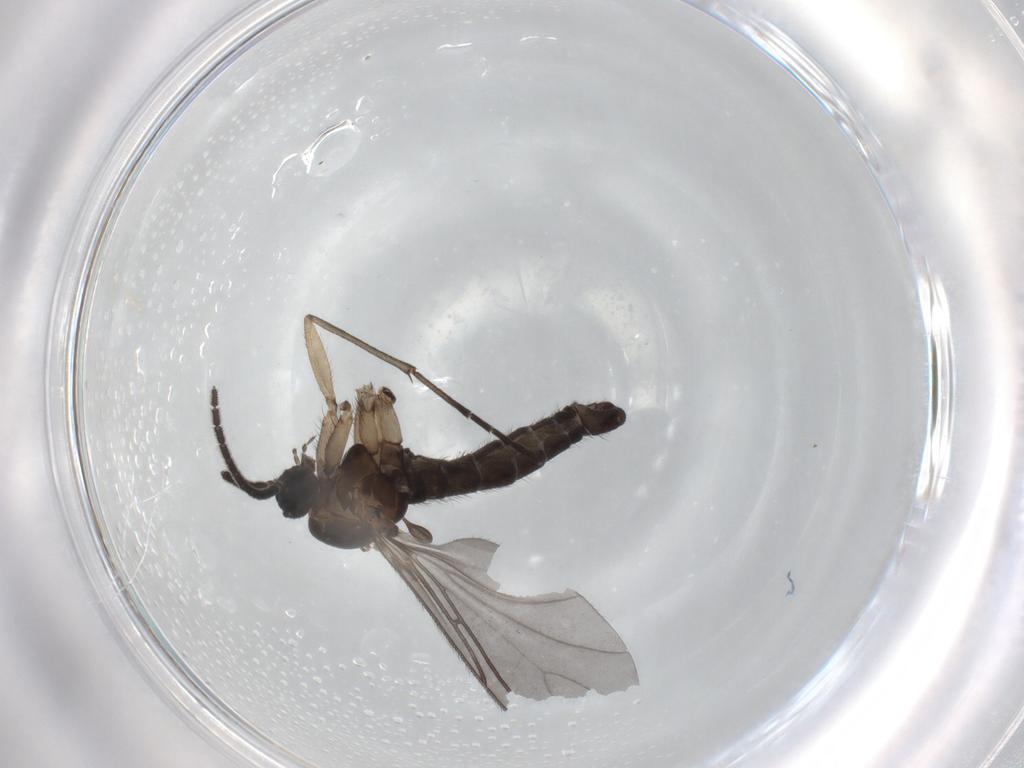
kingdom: Animalia
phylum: Arthropoda
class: Insecta
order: Diptera
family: Sciaridae
